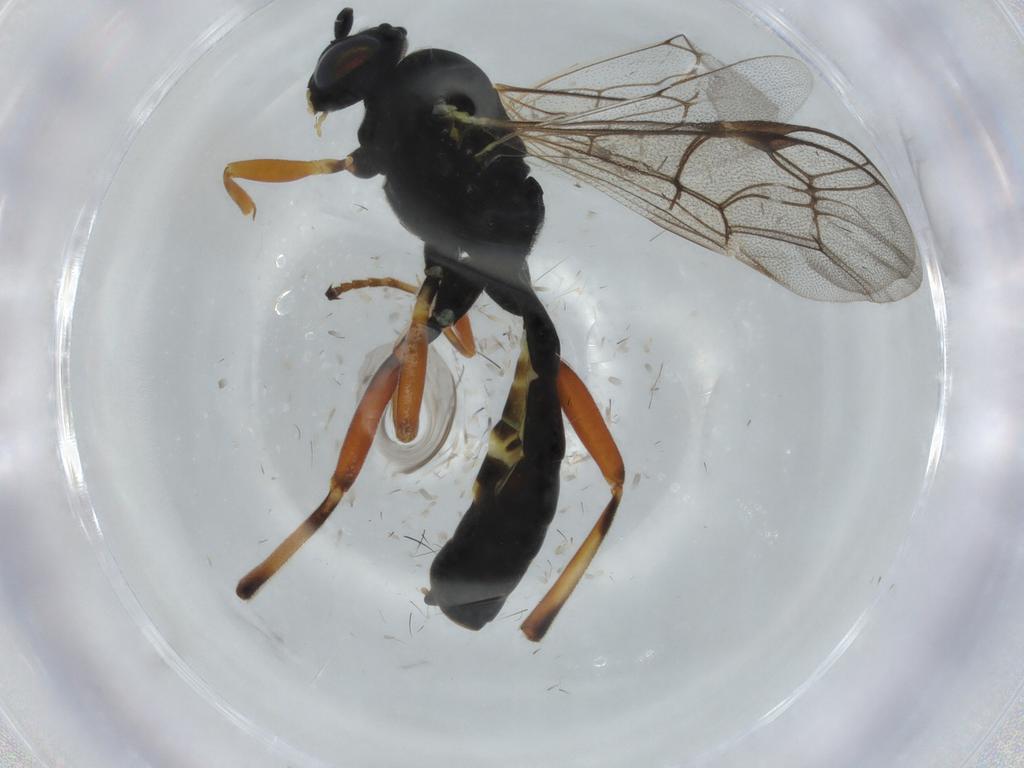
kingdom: Animalia
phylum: Arthropoda
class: Insecta
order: Hymenoptera
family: Diapriidae
